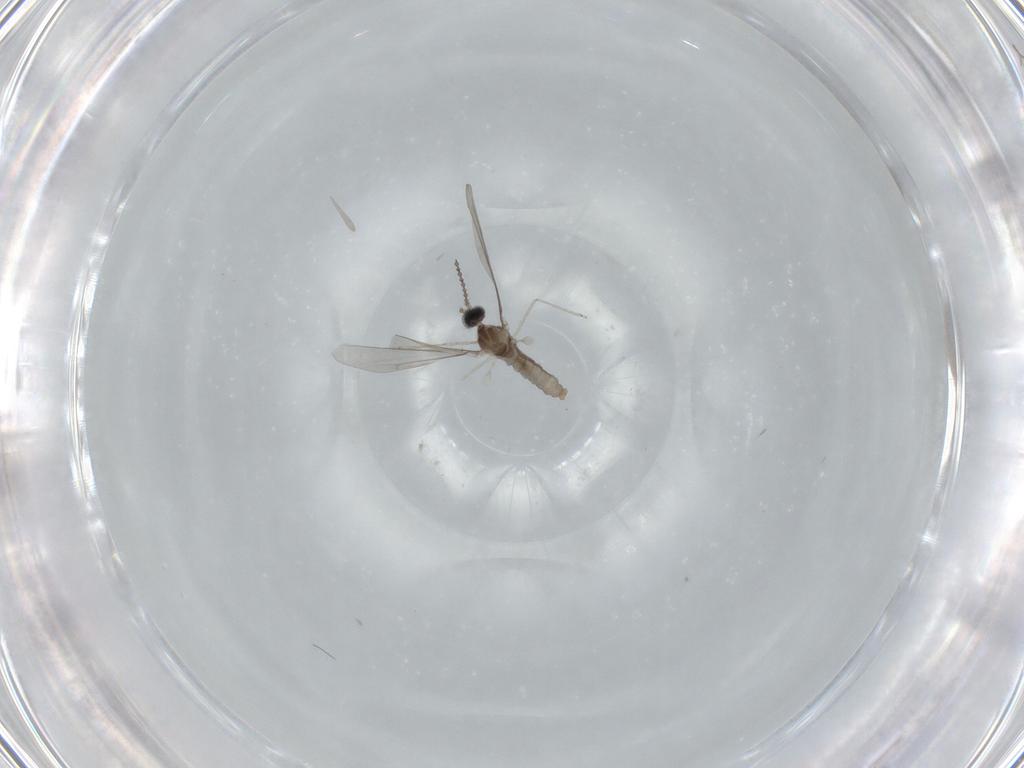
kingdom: Animalia
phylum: Arthropoda
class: Insecta
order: Diptera
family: Cecidomyiidae
